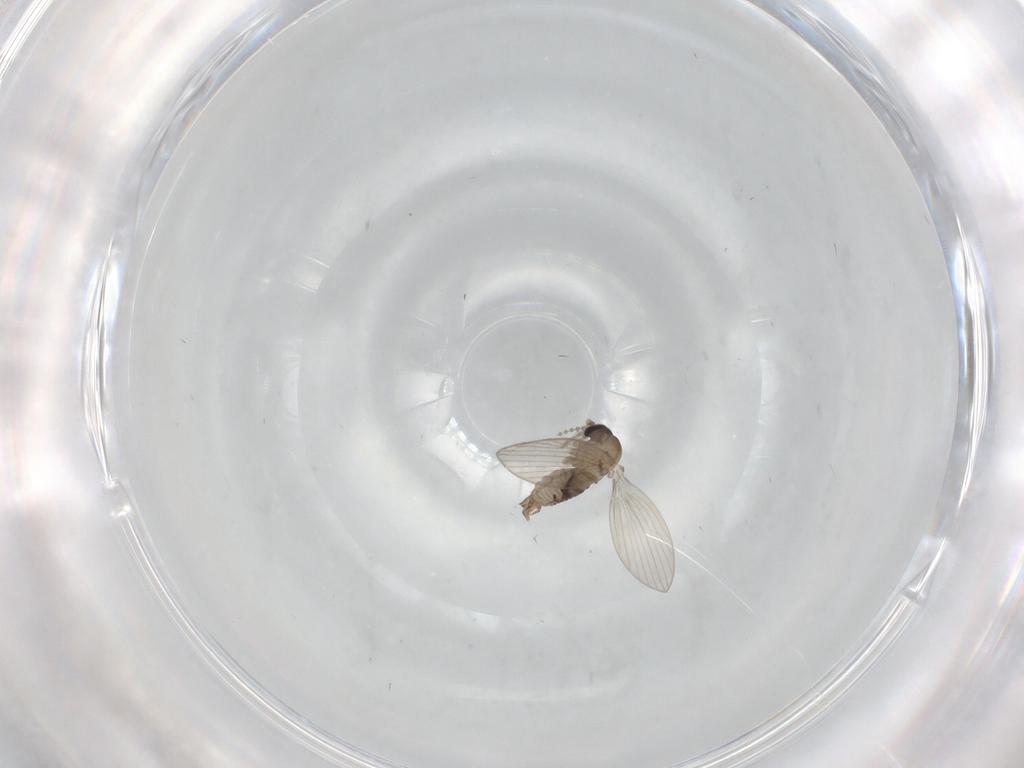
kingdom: Animalia
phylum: Arthropoda
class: Insecta
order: Diptera
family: Psychodidae
